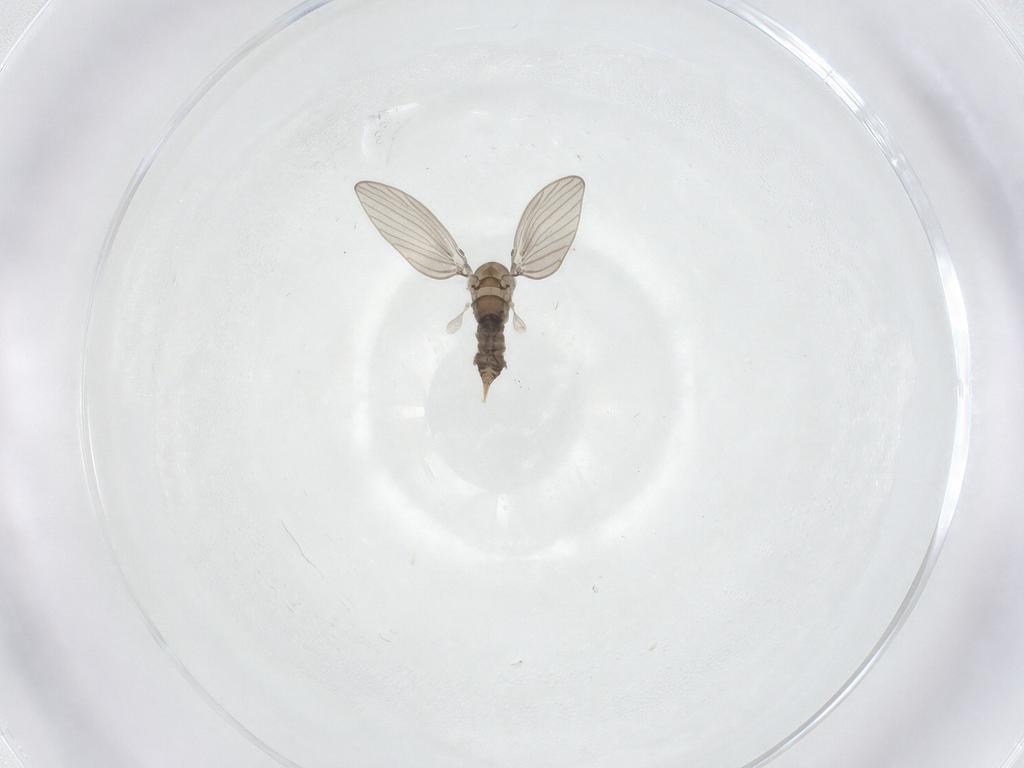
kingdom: Animalia
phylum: Arthropoda
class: Insecta
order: Diptera
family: Psychodidae
